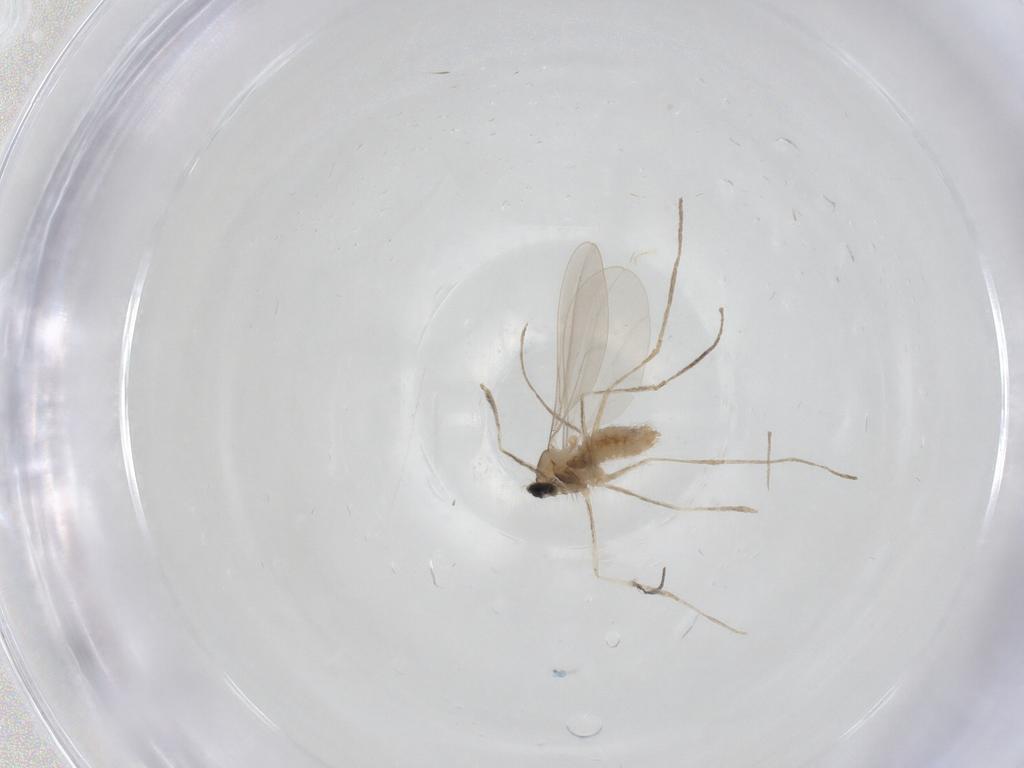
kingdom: Animalia
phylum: Arthropoda
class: Insecta
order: Diptera
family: Cecidomyiidae
